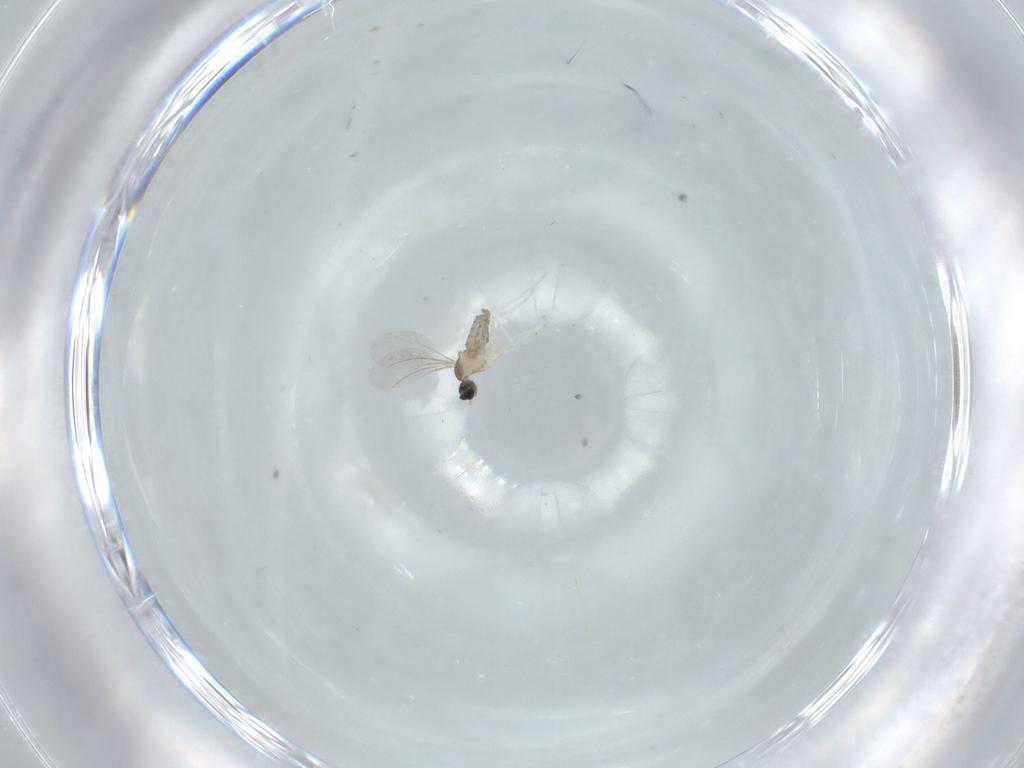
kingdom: Animalia
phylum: Arthropoda
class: Insecta
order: Diptera
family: Cecidomyiidae
